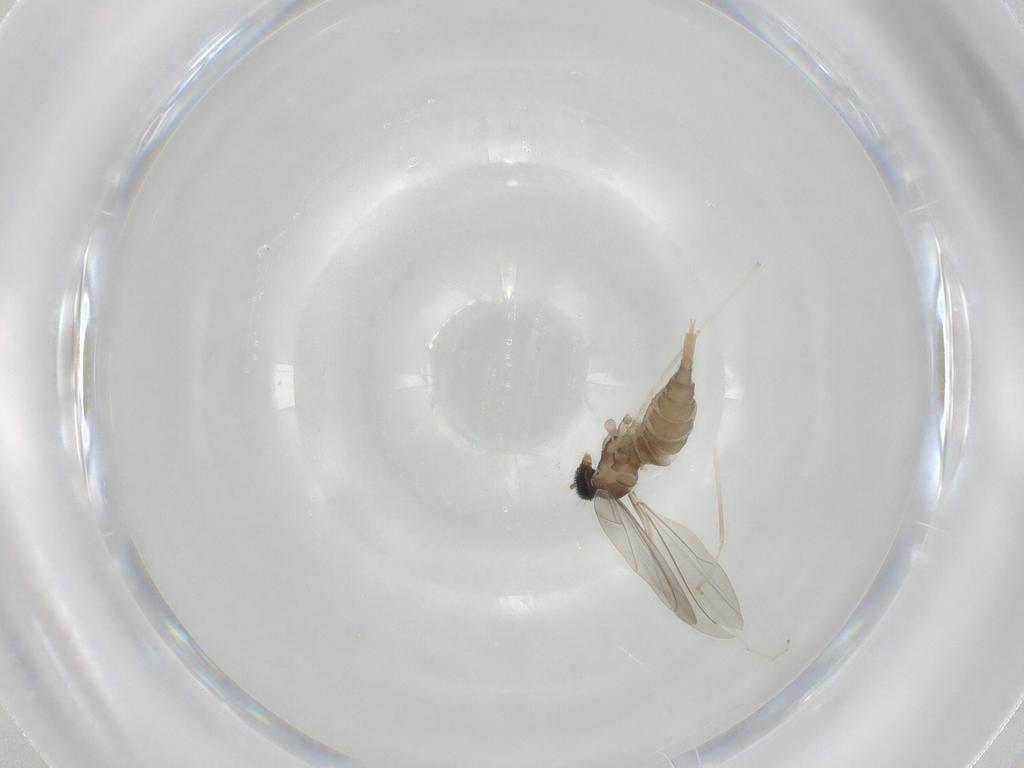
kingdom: Animalia
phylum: Arthropoda
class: Insecta
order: Diptera
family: Cecidomyiidae
